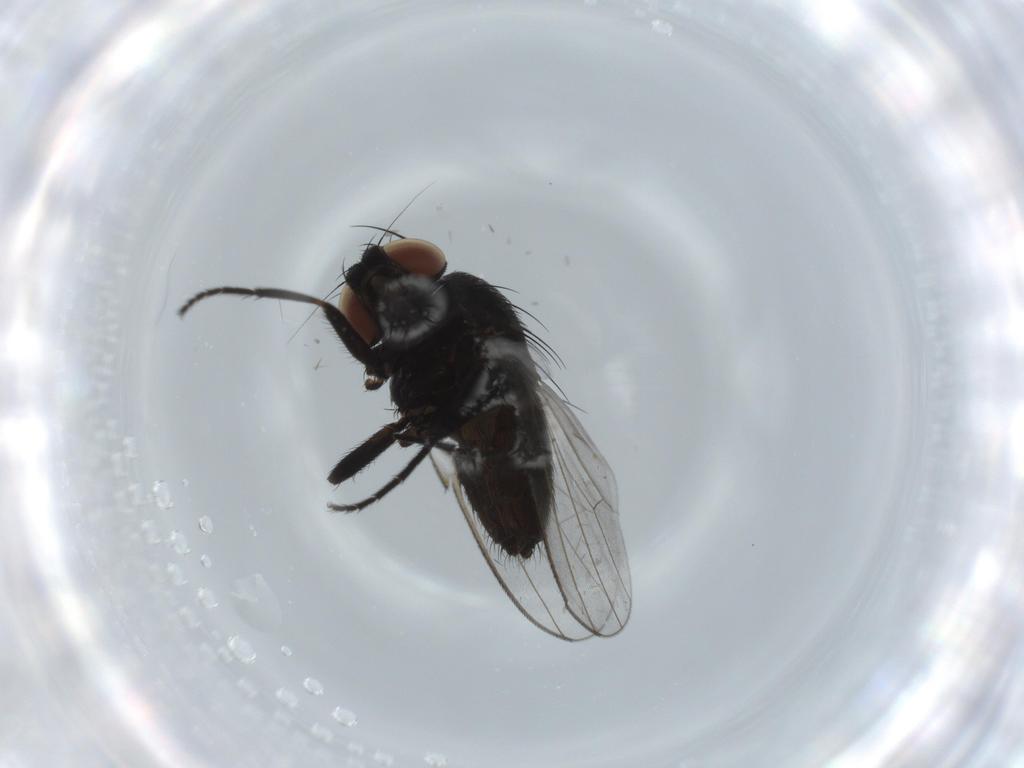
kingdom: Animalia
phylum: Arthropoda
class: Insecta
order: Diptera
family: Milichiidae
